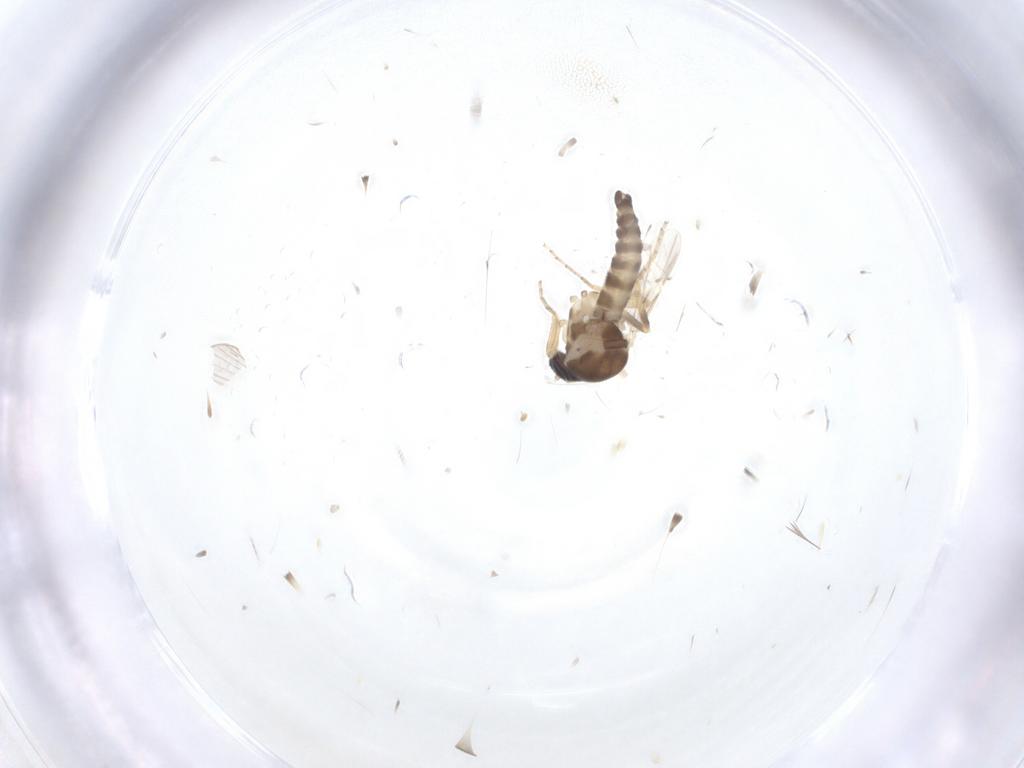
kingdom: Animalia
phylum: Arthropoda
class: Insecta
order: Diptera
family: Ceratopogonidae
